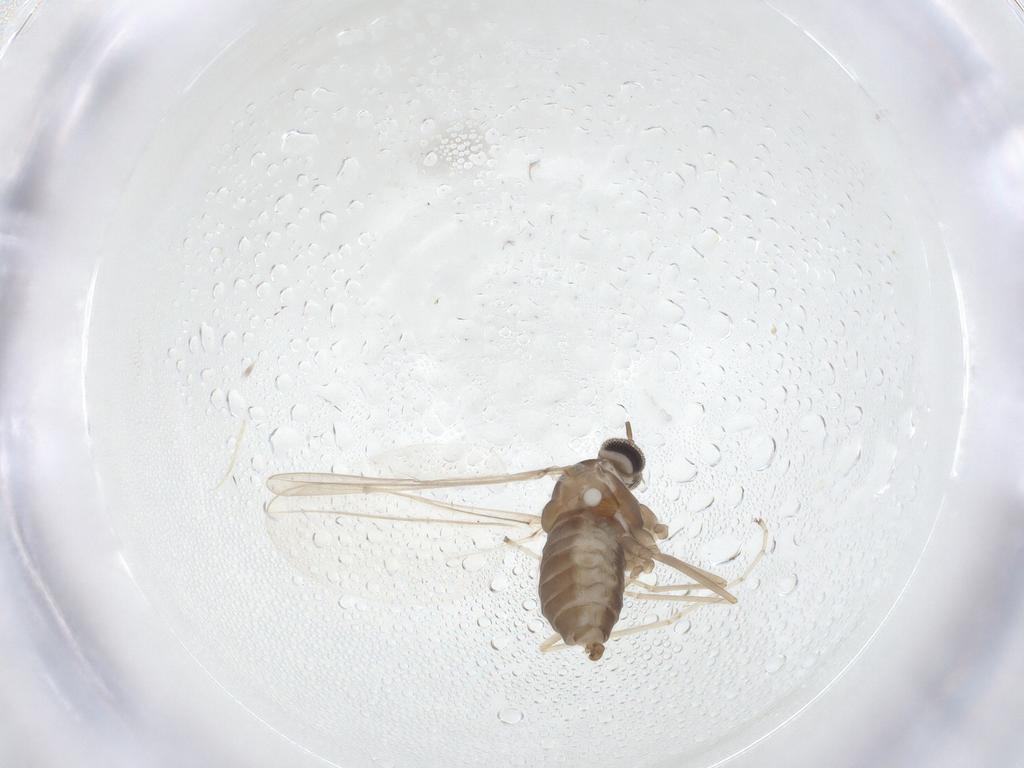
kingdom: Animalia
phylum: Arthropoda
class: Insecta
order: Diptera
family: Cecidomyiidae
